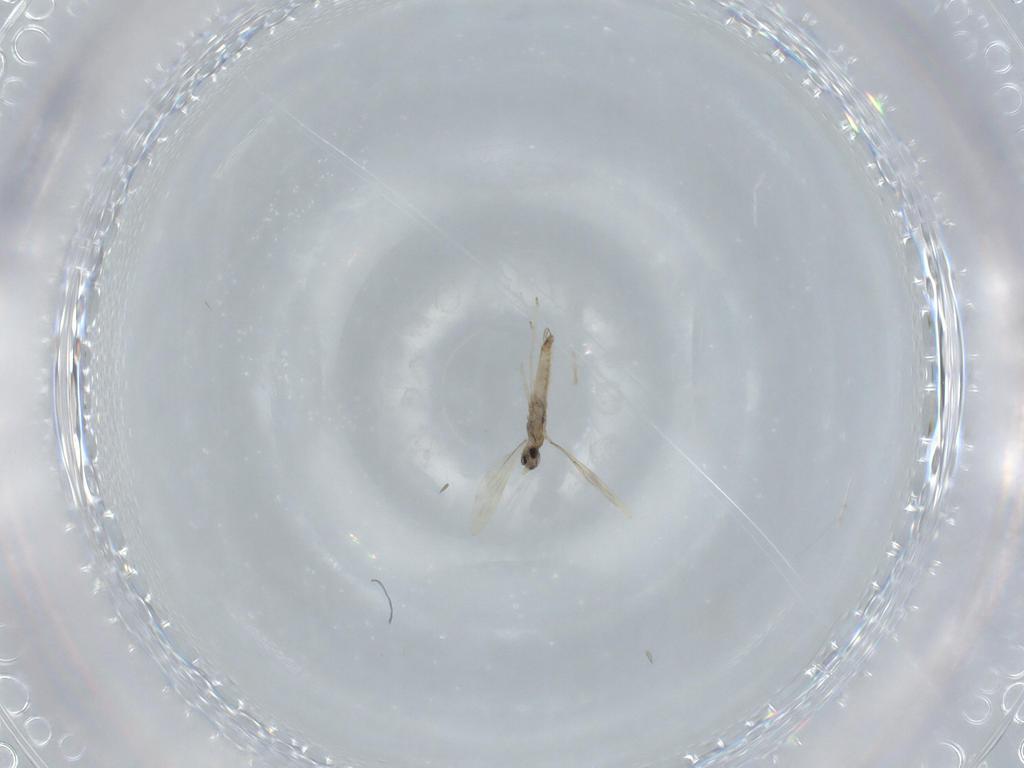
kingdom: Animalia
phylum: Arthropoda
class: Insecta
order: Diptera
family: Cecidomyiidae
